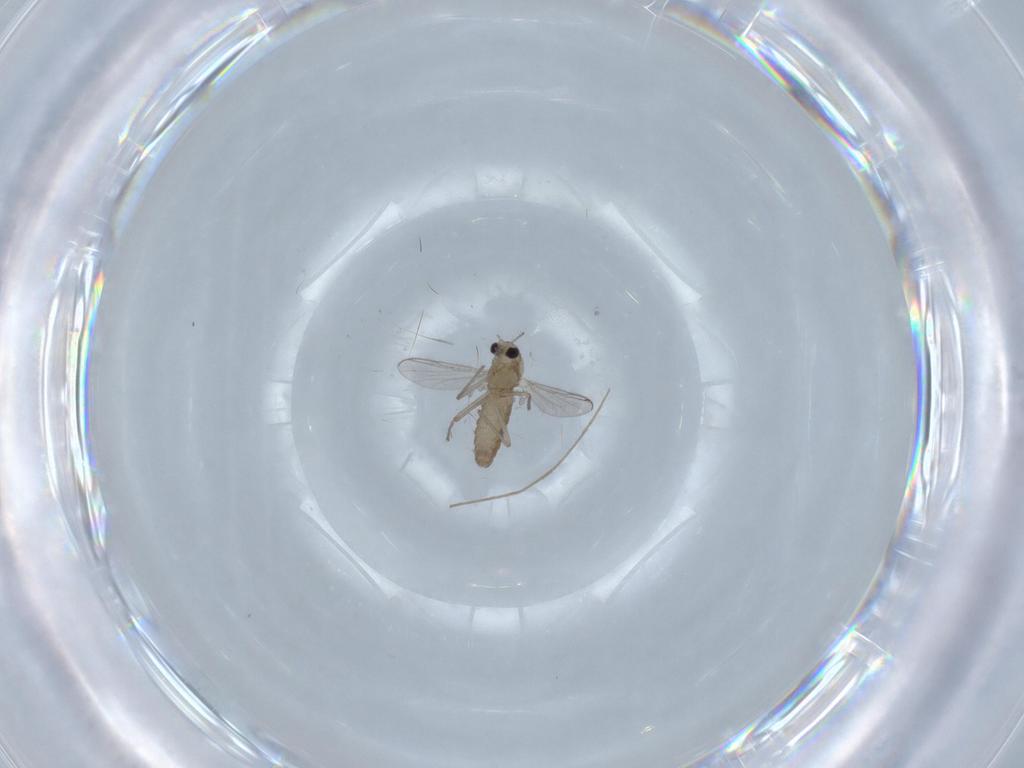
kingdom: Animalia
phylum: Arthropoda
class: Insecta
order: Diptera
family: Chironomidae
